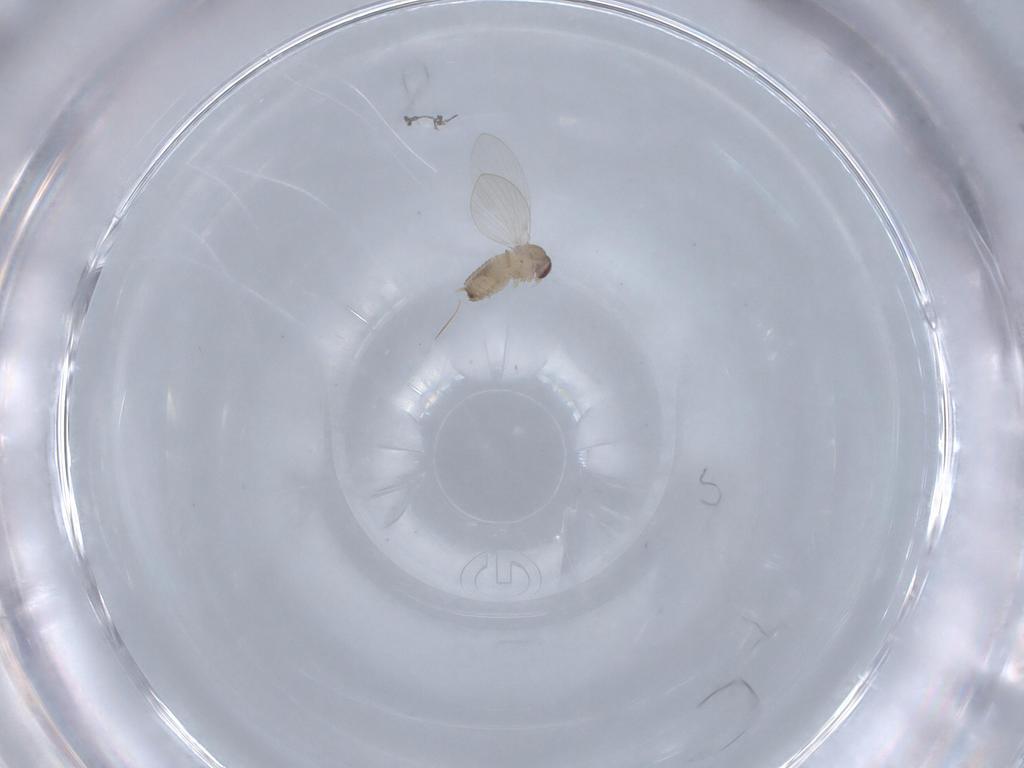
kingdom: Animalia
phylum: Arthropoda
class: Insecta
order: Diptera
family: Psychodidae
